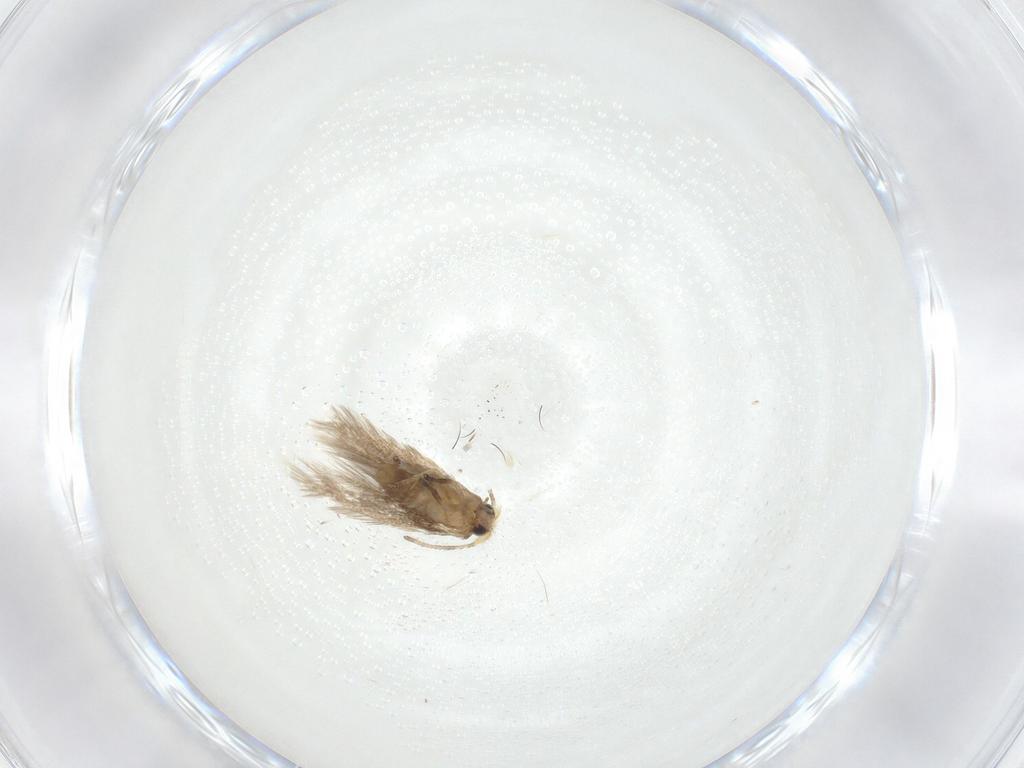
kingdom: Animalia
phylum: Arthropoda
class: Insecta
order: Lepidoptera
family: Nepticulidae
